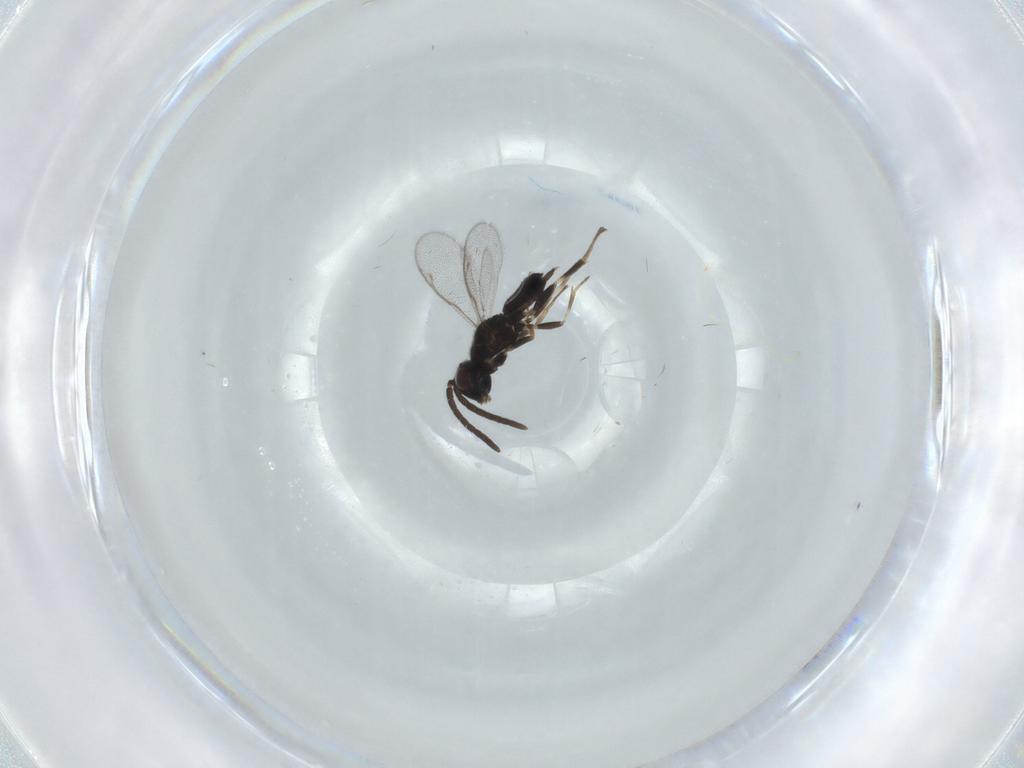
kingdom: Animalia
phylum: Arthropoda
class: Insecta
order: Hymenoptera
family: Eupelmidae
